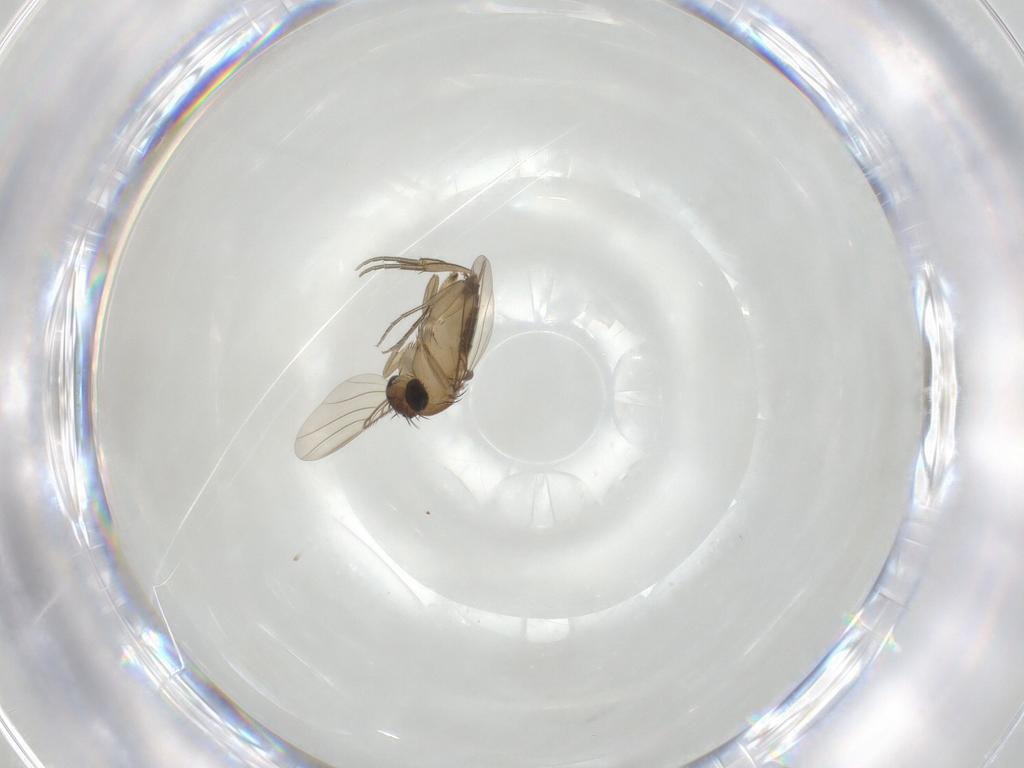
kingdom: Animalia
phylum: Arthropoda
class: Insecta
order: Diptera
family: Phoridae
